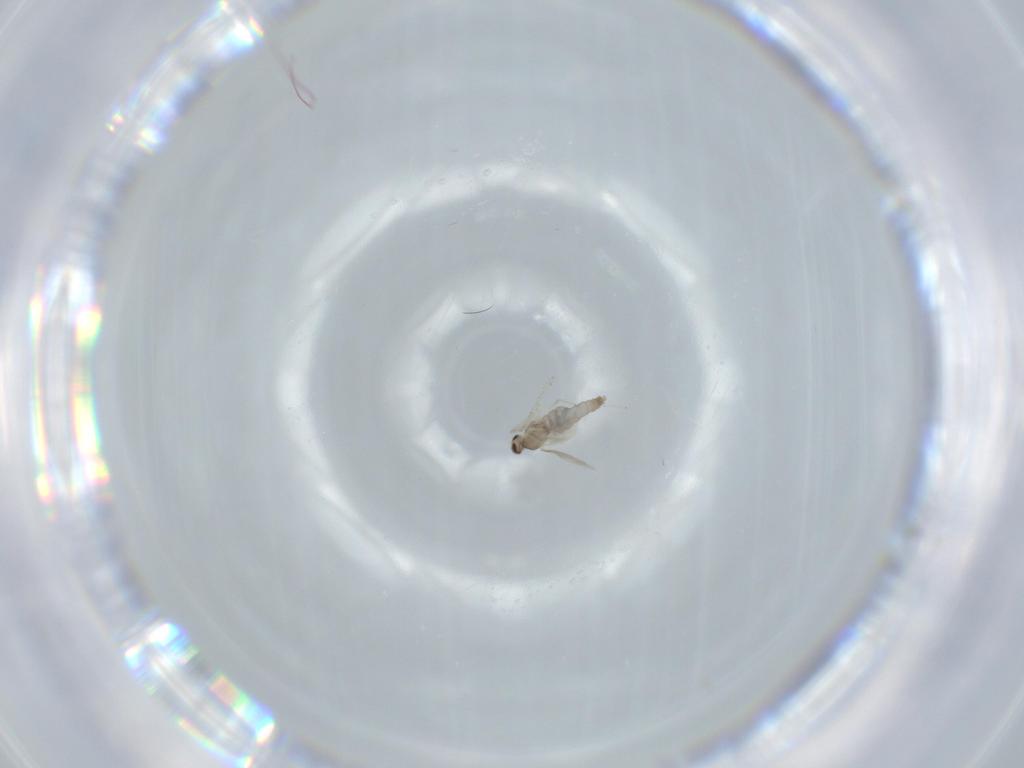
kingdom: Animalia
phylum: Arthropoda
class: Insecta
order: Diptera
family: Cecidomyiidae
